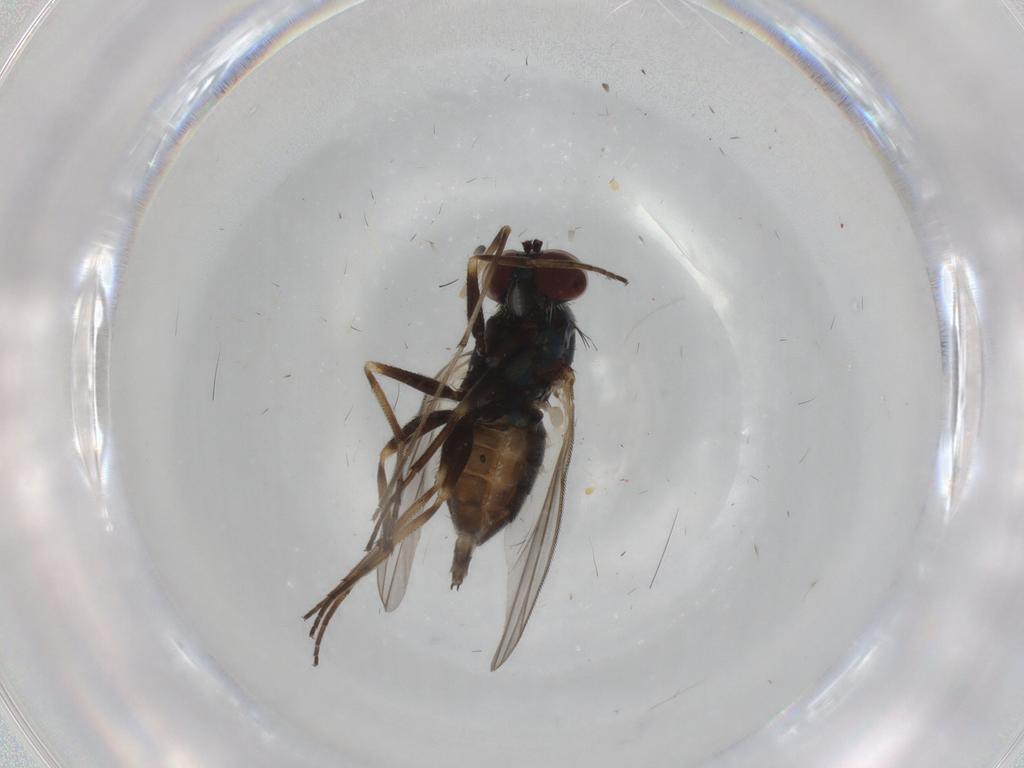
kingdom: Animalia
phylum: Arthropoda
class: Insecta
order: Diptera
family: Dolichopodidae
